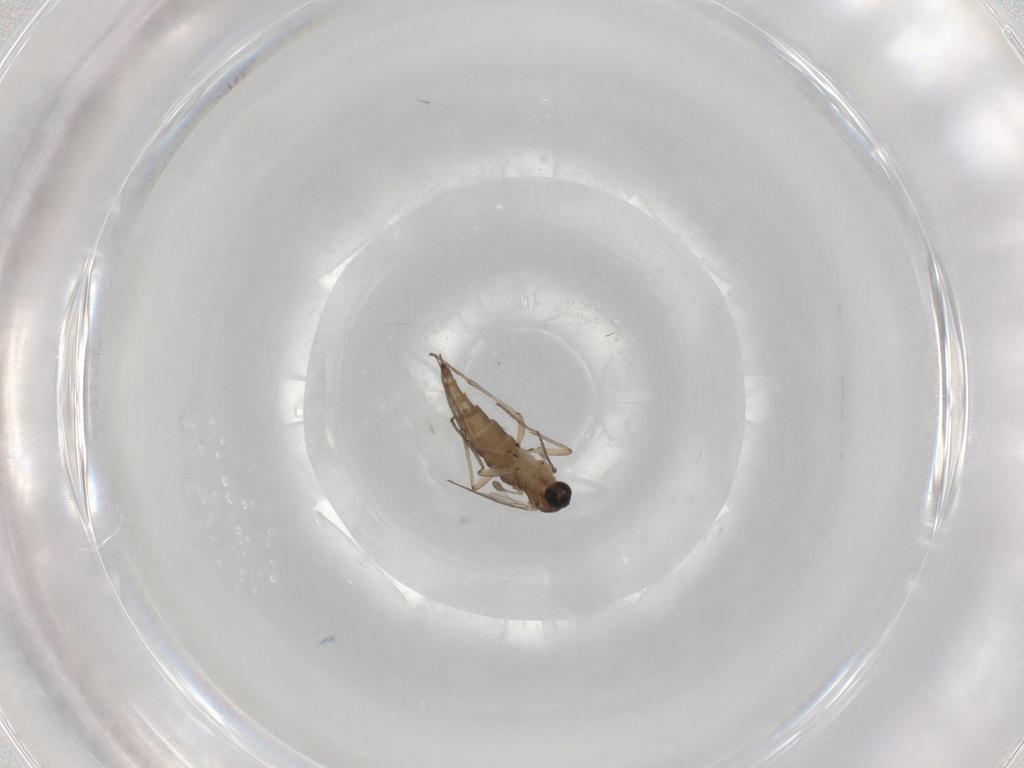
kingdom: Animalia
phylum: Arthropoda
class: Insecta
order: Diptera
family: Sciaridae
